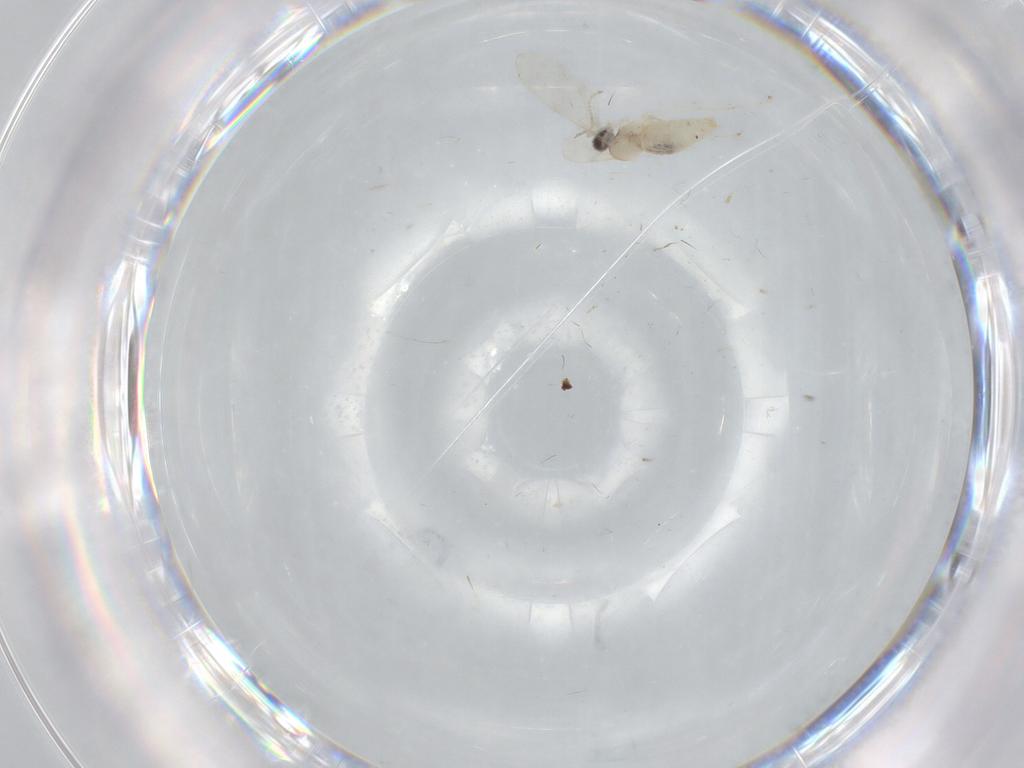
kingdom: Animalia
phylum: Arthropoda
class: Insecta
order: Diptera
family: Cecidomyiidae
